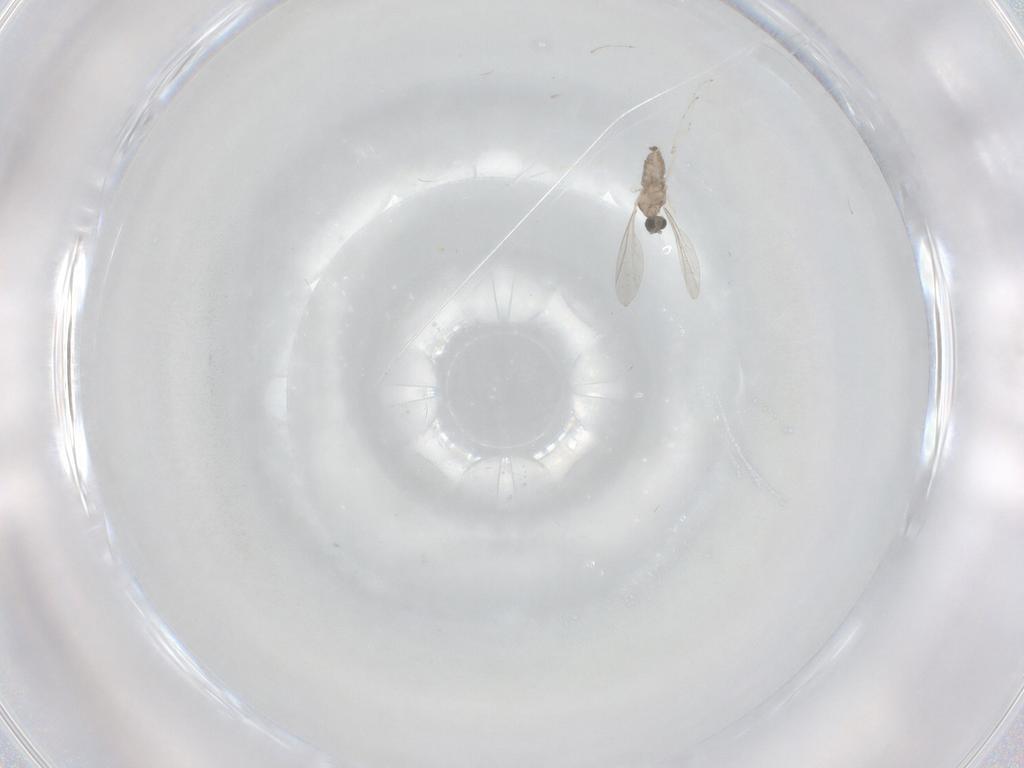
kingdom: Animalia
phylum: Arthropoda
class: Insecta
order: Diptera
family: Cecidomyiidae
